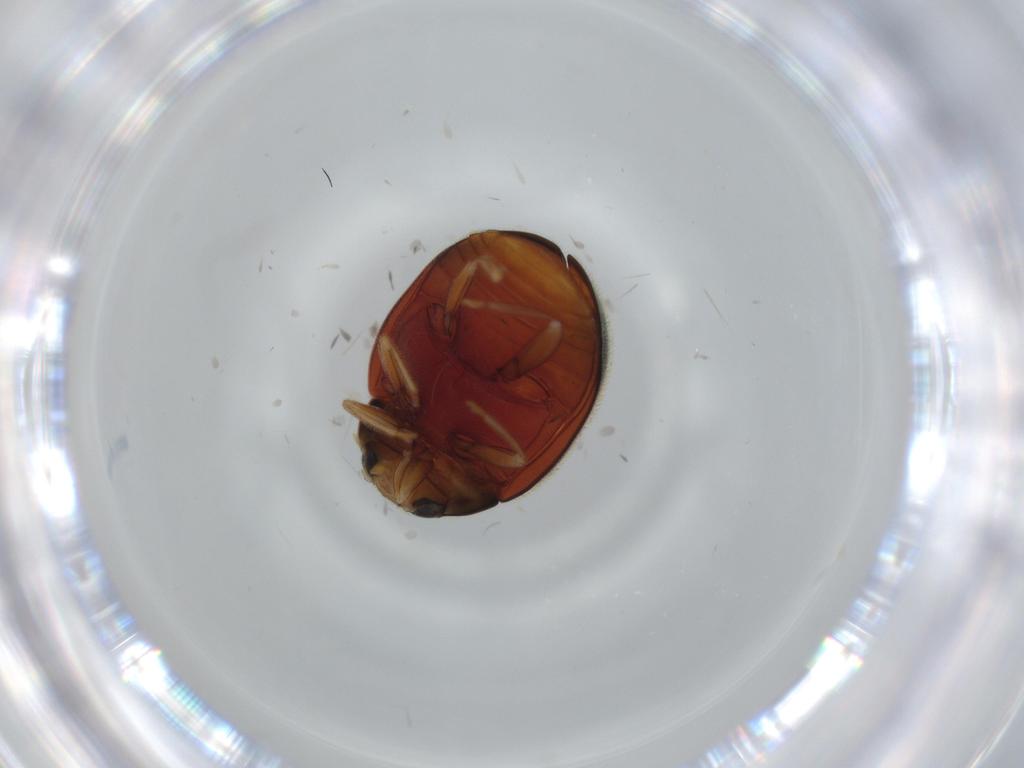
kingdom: Animalia
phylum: Arthropoda
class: Insecta
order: Coleoptera
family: Coccinellidae
